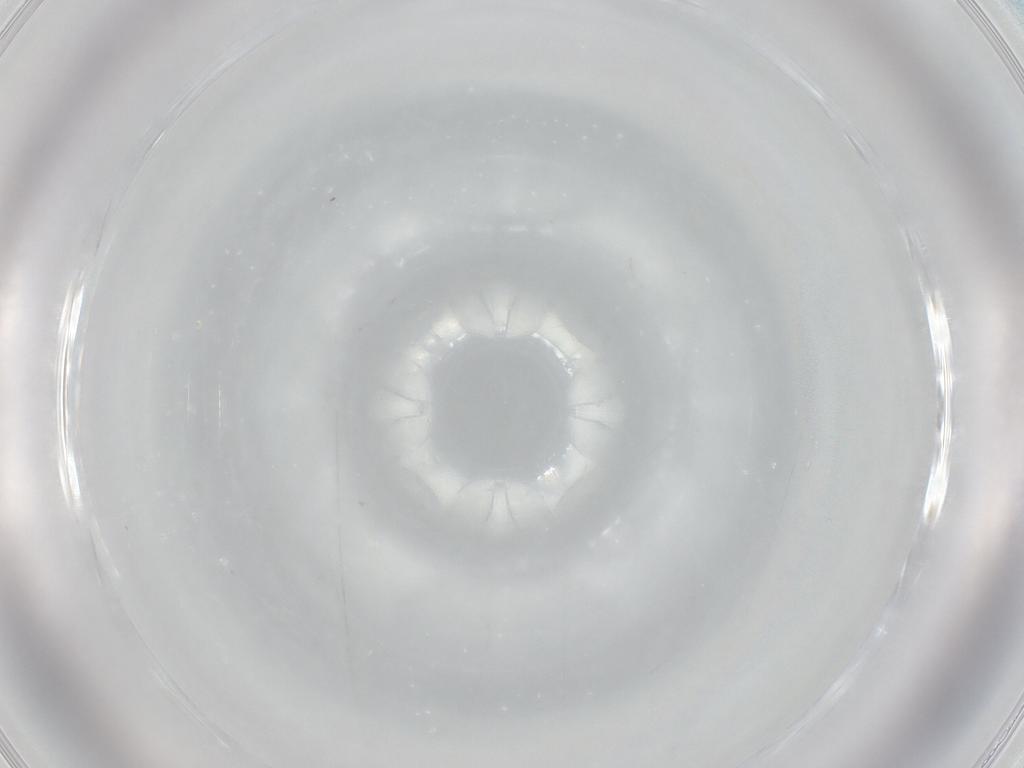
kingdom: Animalia
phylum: Arthropoda
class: Insecta
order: Diptera
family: Phoridae
